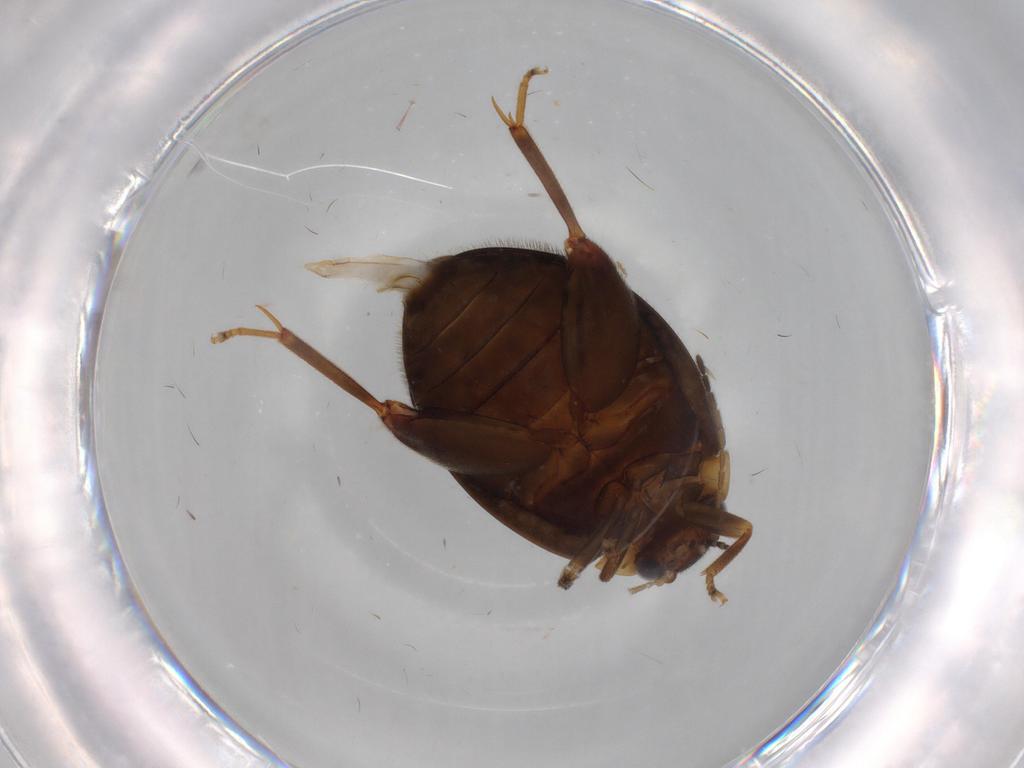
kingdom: Animalia
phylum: Arthropoda
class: Insecta
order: Coleoptera
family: Scirtidae
